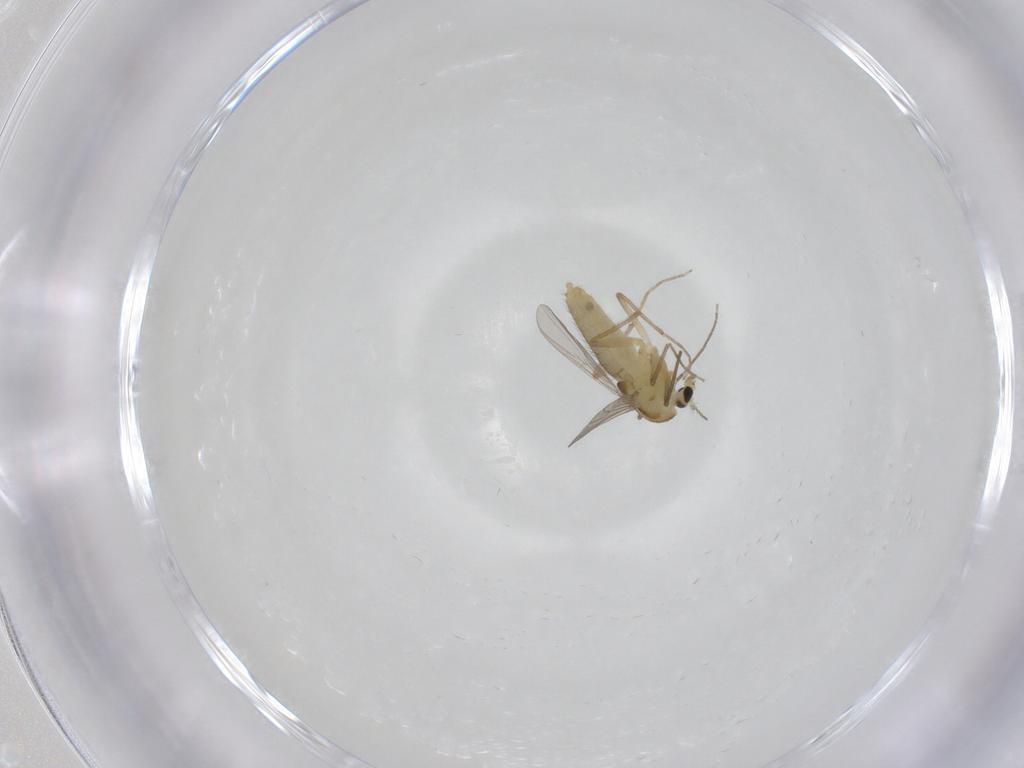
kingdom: Animalia
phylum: Arthropoda
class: Insecta
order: Diptera
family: Chironomidae
